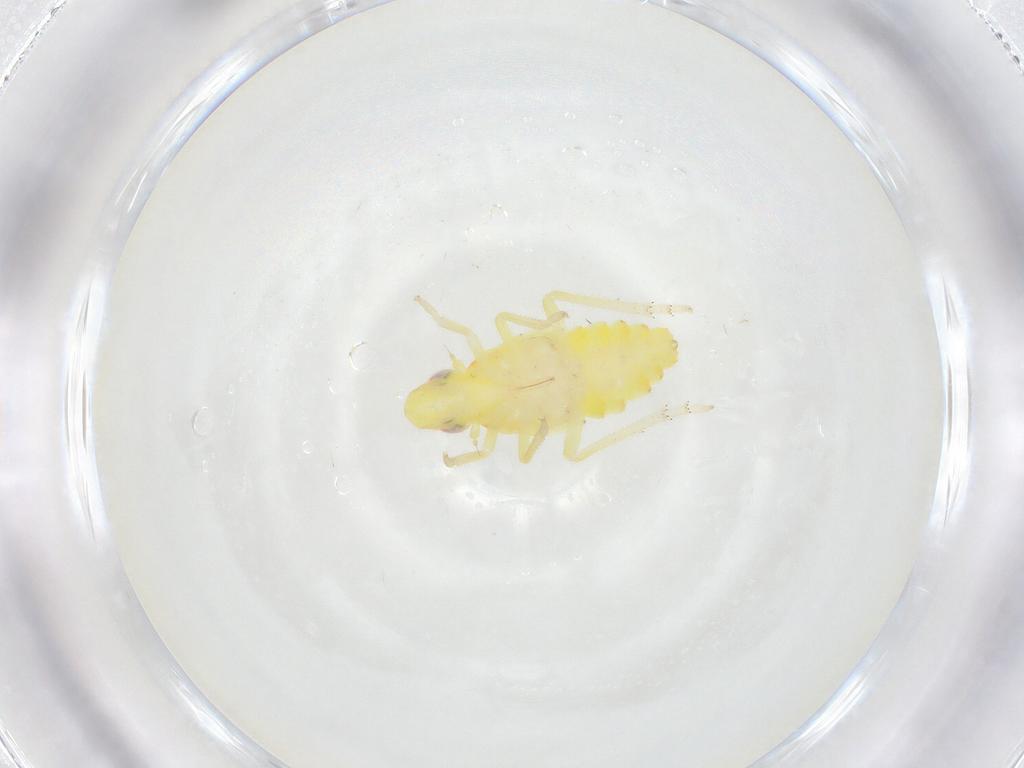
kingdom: Animalia
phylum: Arthropoda
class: Insecta
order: Hemiptera
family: Tropiduchidae
